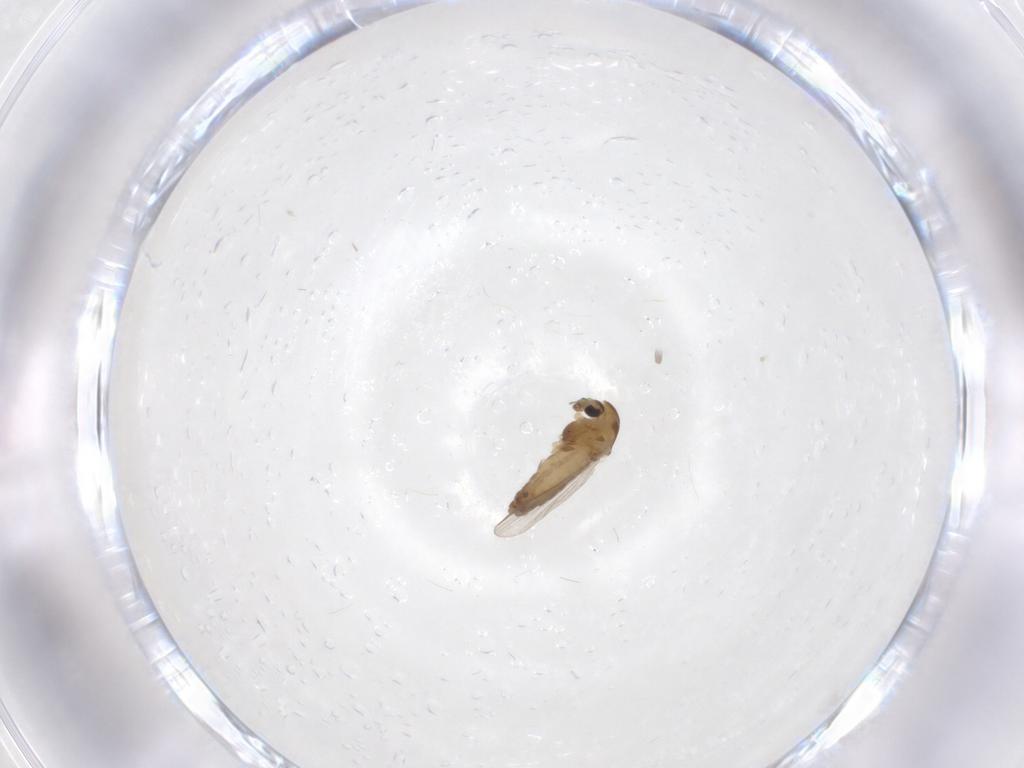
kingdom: Animalia
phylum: Arthropoda
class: Insecta
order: Diptera
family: Chironomidae
